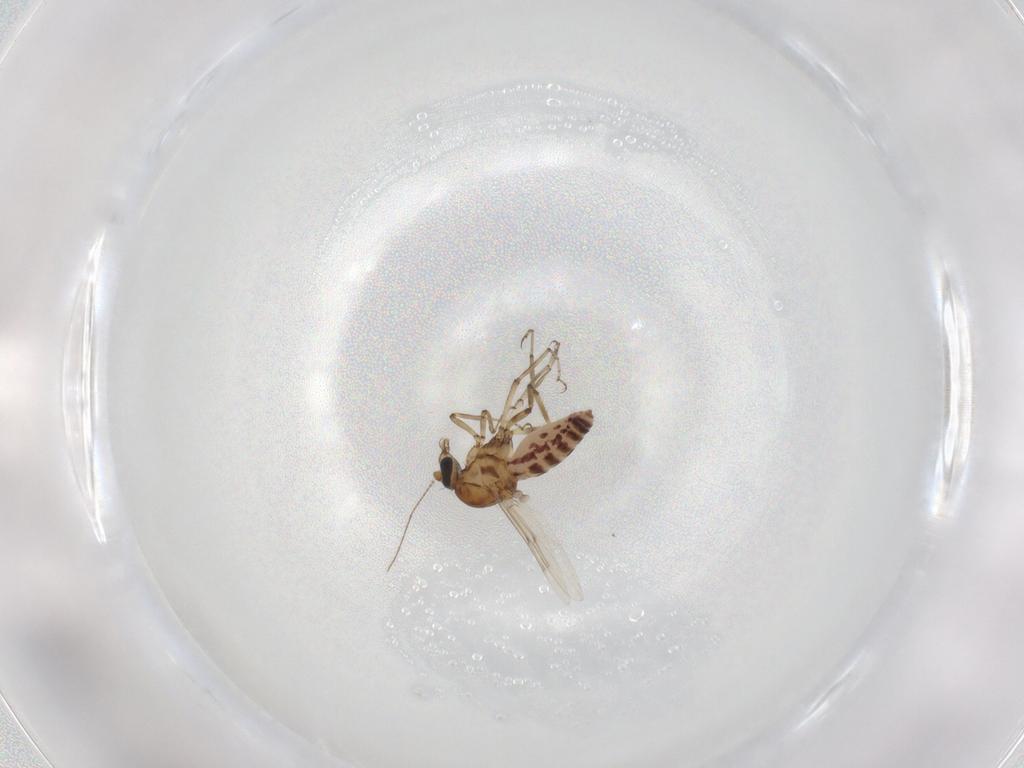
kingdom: Animalia
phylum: Arthropoda
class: Insecta
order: Diptera
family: Ceratopogonidae
